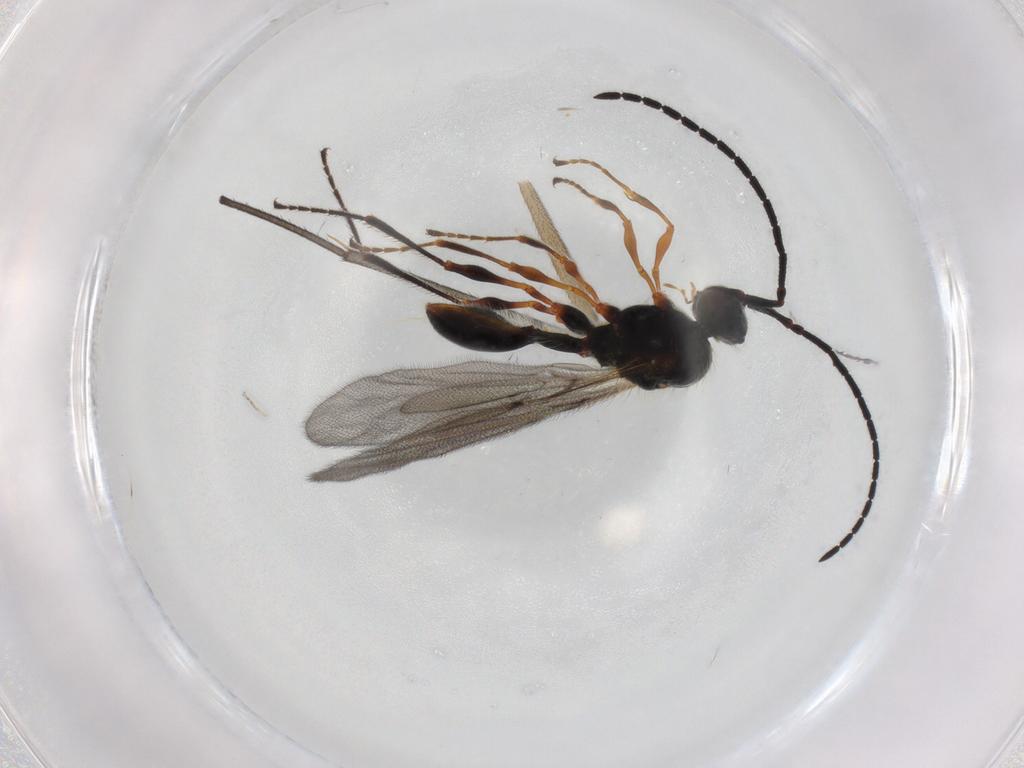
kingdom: Animalia
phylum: Arthropoda
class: Insecta
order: Hymenoptera
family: Diapriidae
